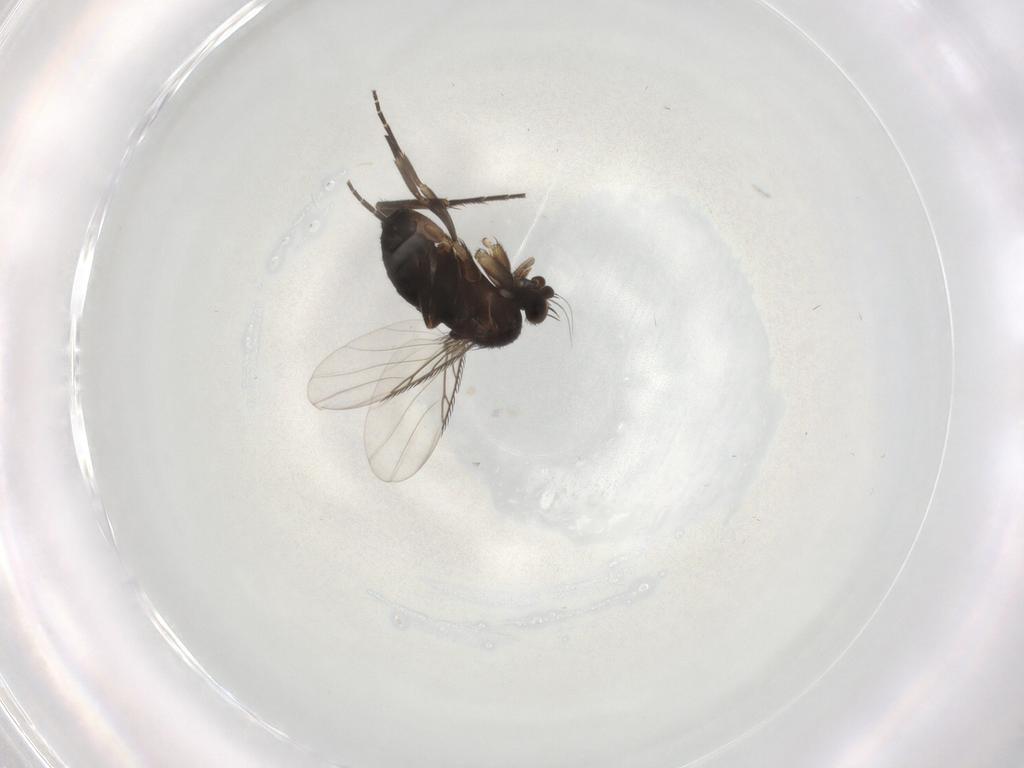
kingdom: Animalia
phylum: Arthropoda
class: Insecta
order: Diptera
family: Phoridae
